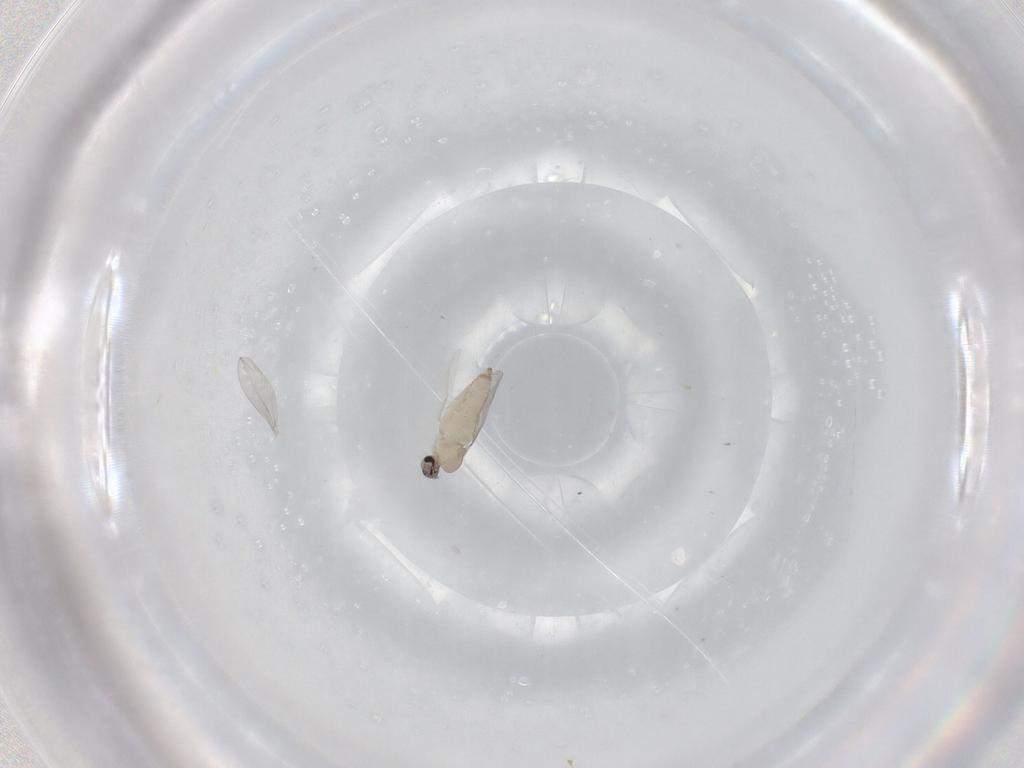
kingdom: Animalia
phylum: Arthropoda
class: Insecta
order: Diptera
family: Cecidomyiidae
